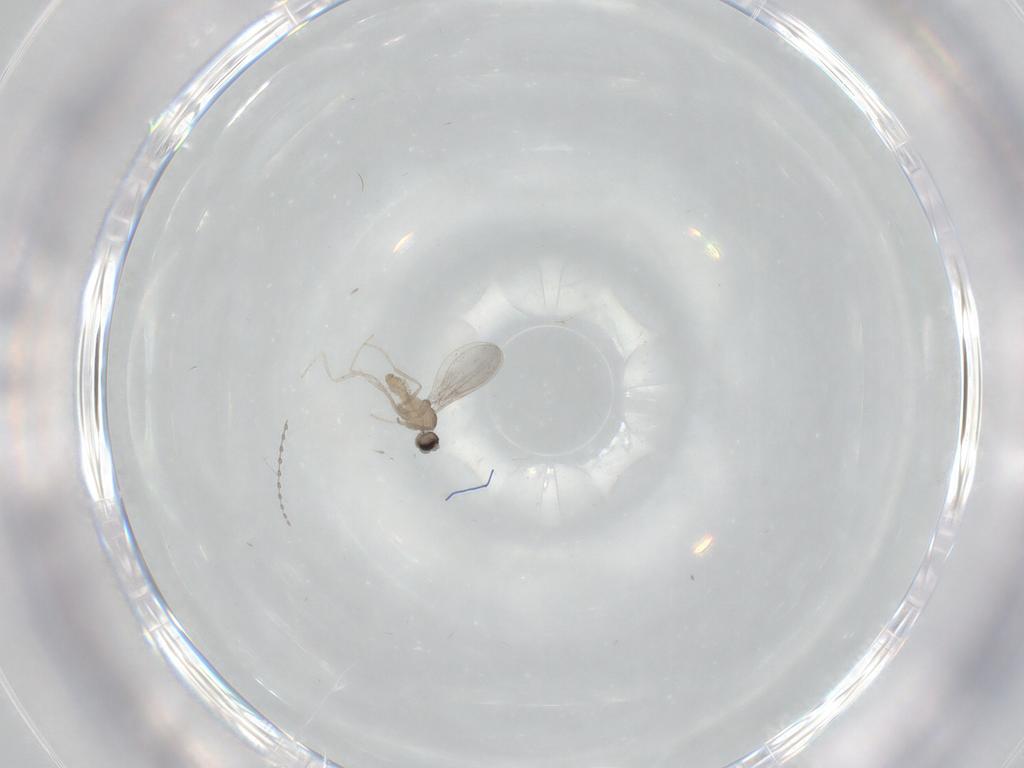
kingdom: Animalia
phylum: Arthropoda
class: Insecta
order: Diptera
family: Cecidomyiidae
